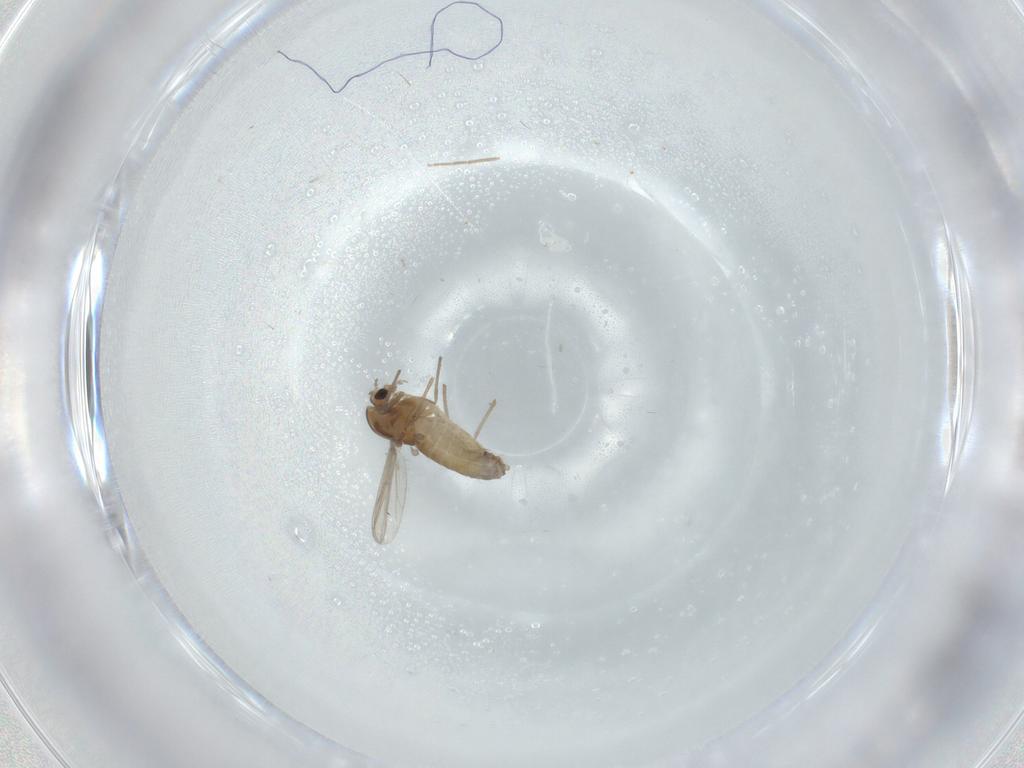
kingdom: Animalia
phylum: Arthropoda
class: Insecta
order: Diptera
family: Chironomidae
